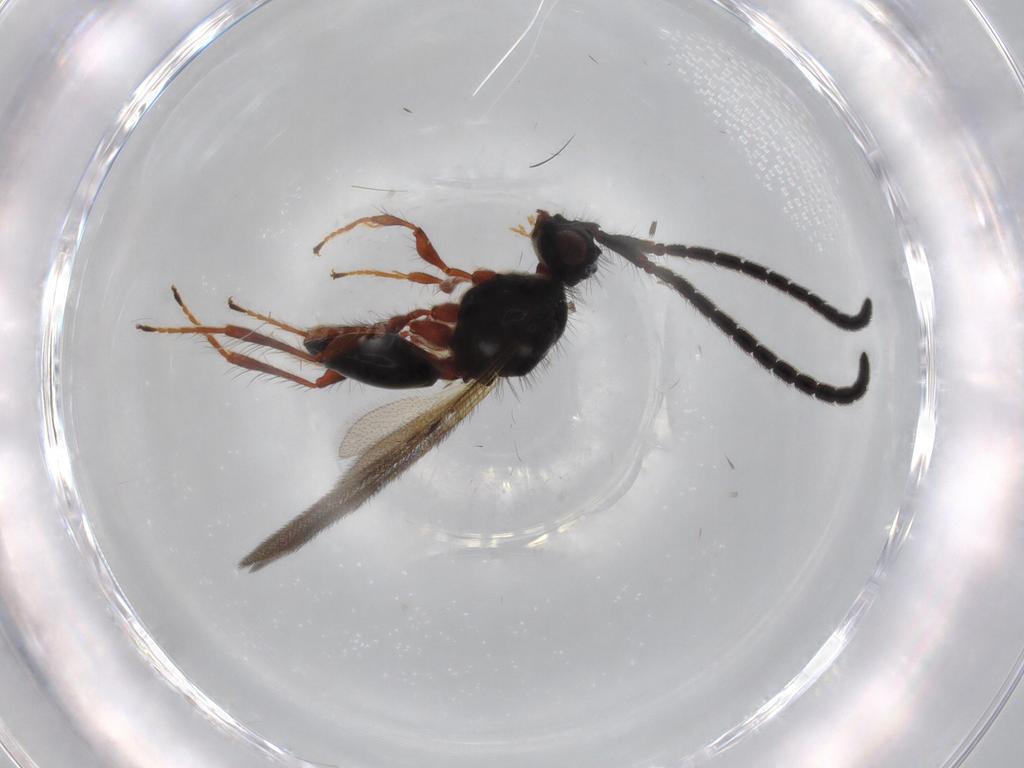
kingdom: Animalia
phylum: Arthropoda
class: Insecta
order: Hymenoptera
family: Diapriidae
